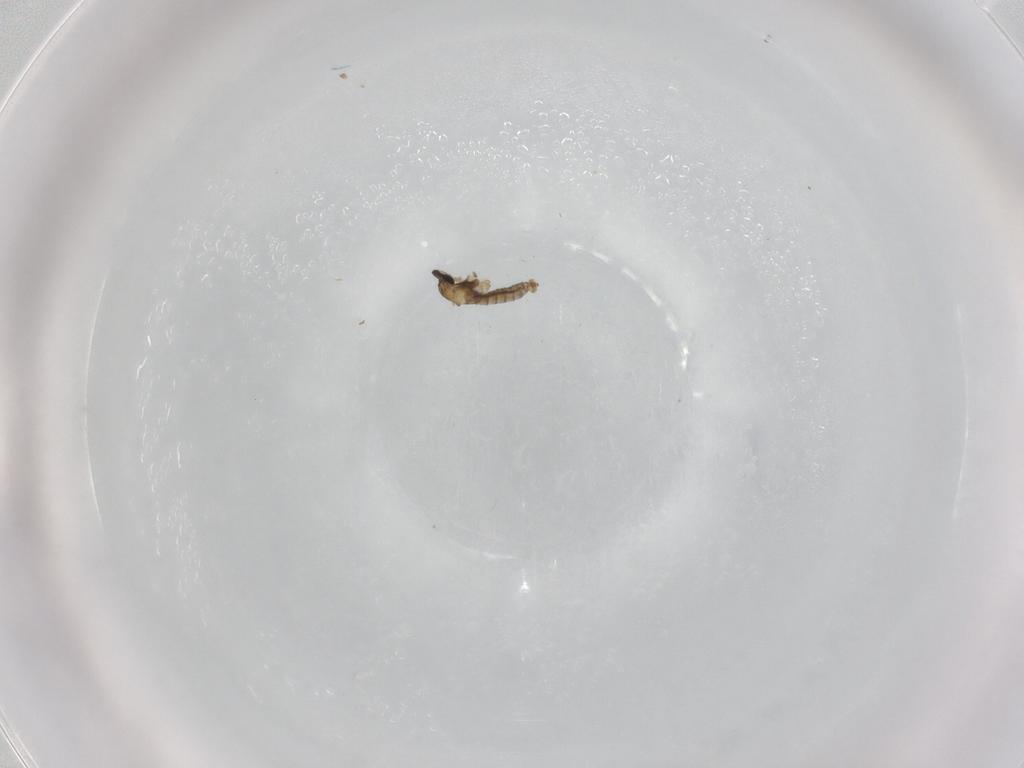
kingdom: Animalia
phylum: Arthropoda
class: Insecta
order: Diptera
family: Cecidomyiidae
